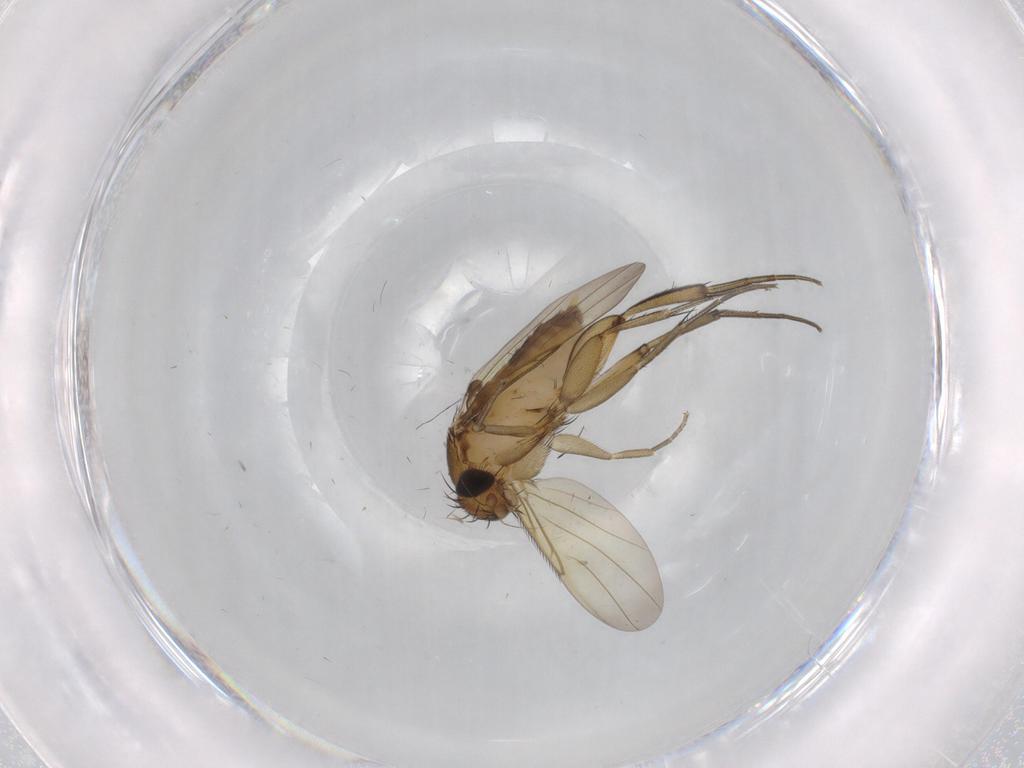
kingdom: Animalia
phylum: Arthropoda
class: Insecta
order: Diptera
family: Phoridae
